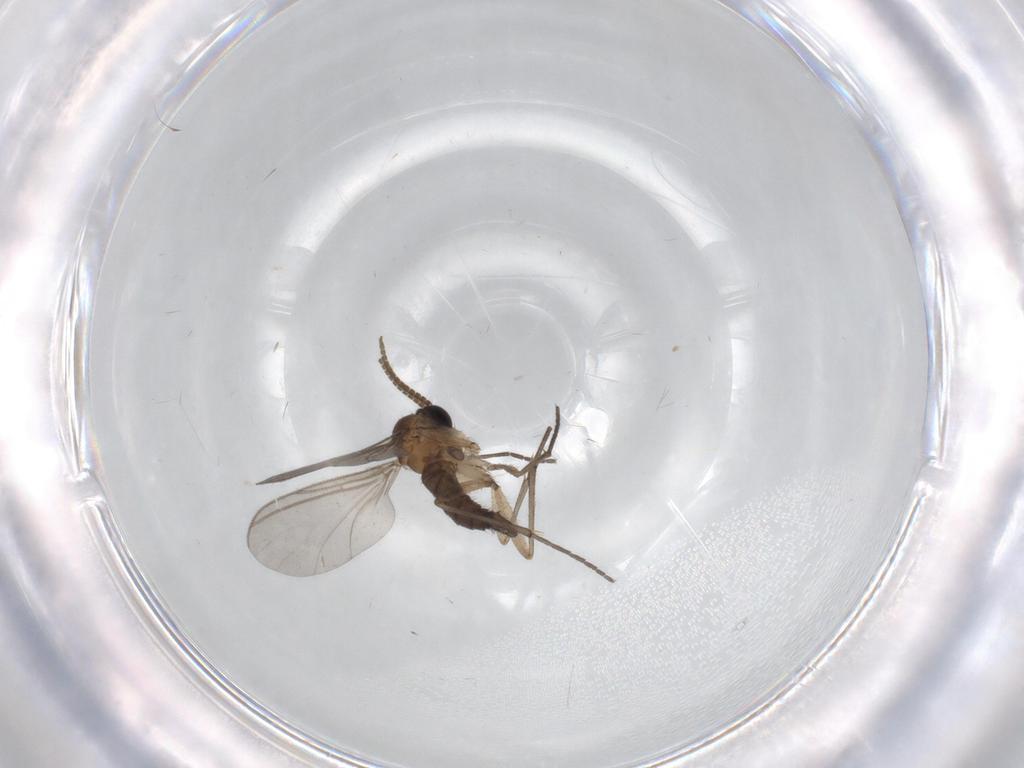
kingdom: Animalia
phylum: Arthropoda
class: Insecta
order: Diptera
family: Sciaridae
